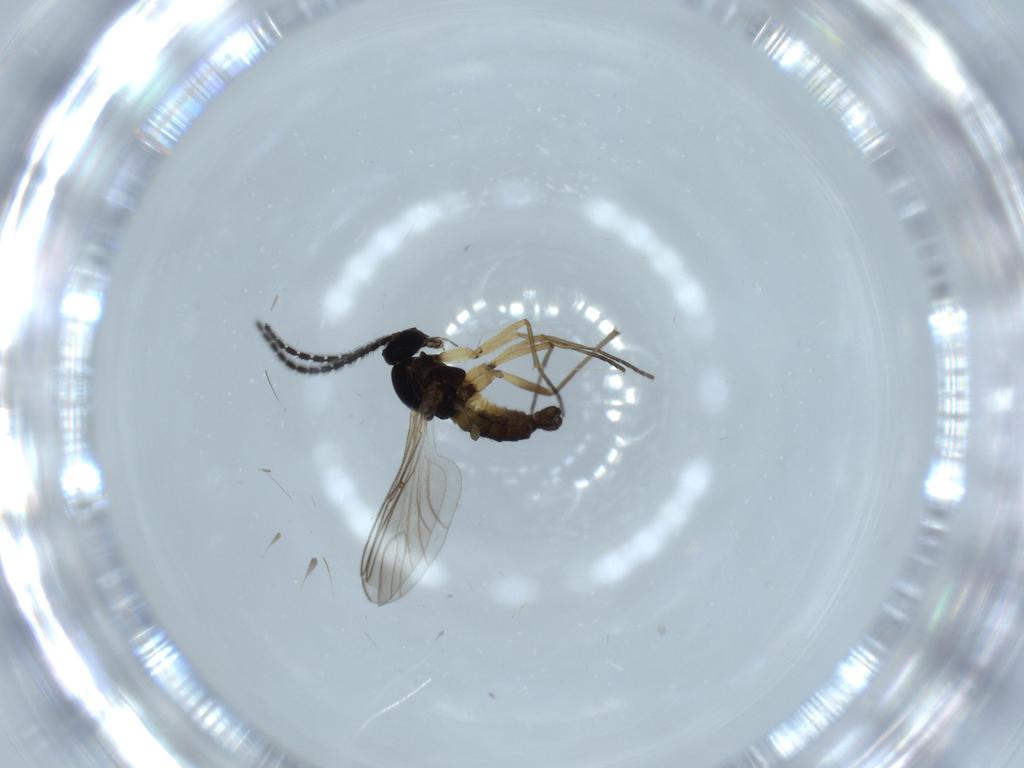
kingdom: Animalia
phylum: Arthropoda
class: Insecta
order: Diptera
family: Sciaridae
